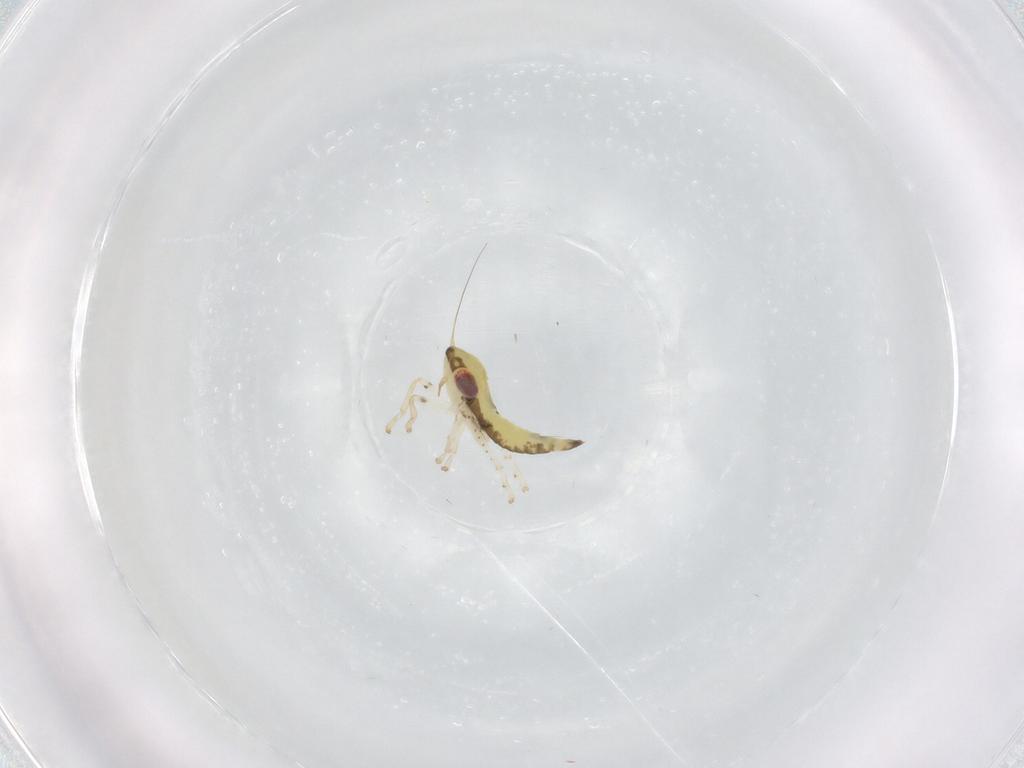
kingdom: Animalia
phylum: Arthropoda
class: Insecta
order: Hemiptera
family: Cicadellidae
